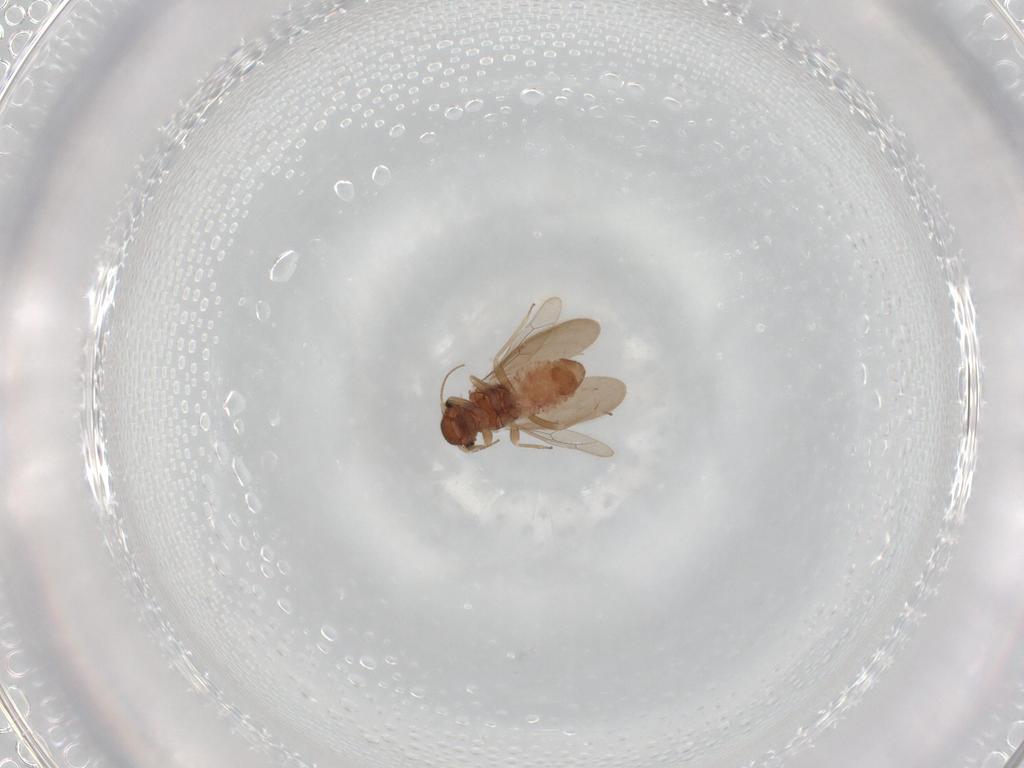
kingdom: Animalia
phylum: Arthropoda
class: Insecta
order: Psocodea
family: Archipsocidae
